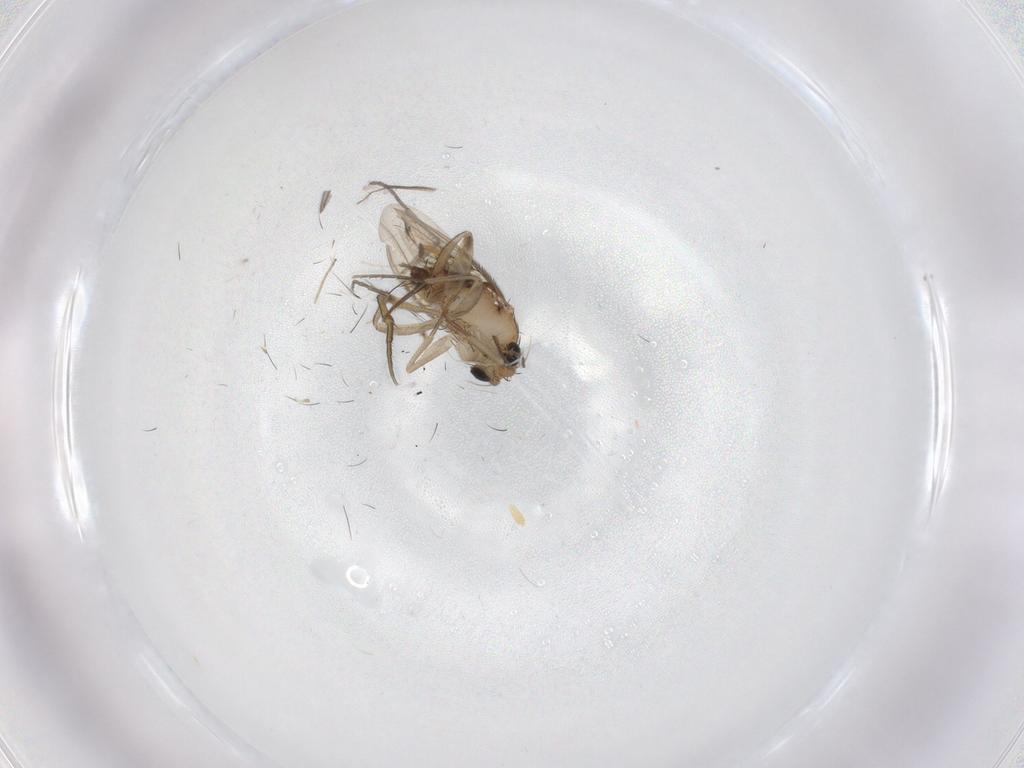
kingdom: Animalia
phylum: Arthropoda
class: Insecta
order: Diptera
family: Phoridae
